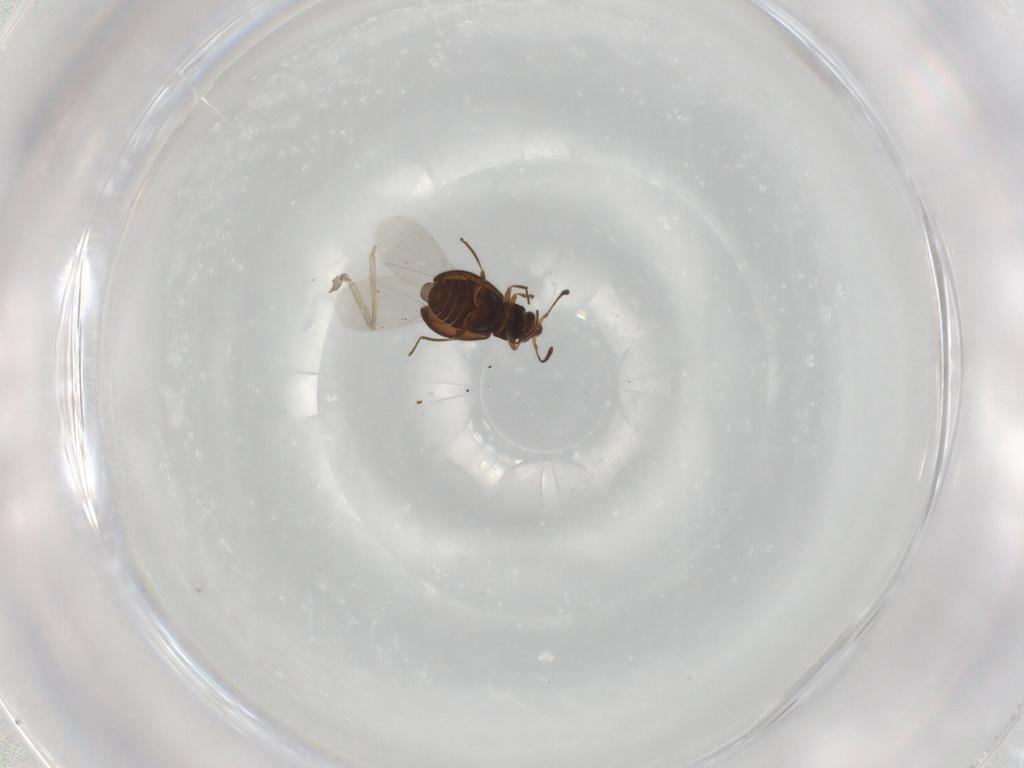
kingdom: Animalia
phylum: Arthropoda
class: Insecta
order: Coleoptera
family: Cryptophagidae
